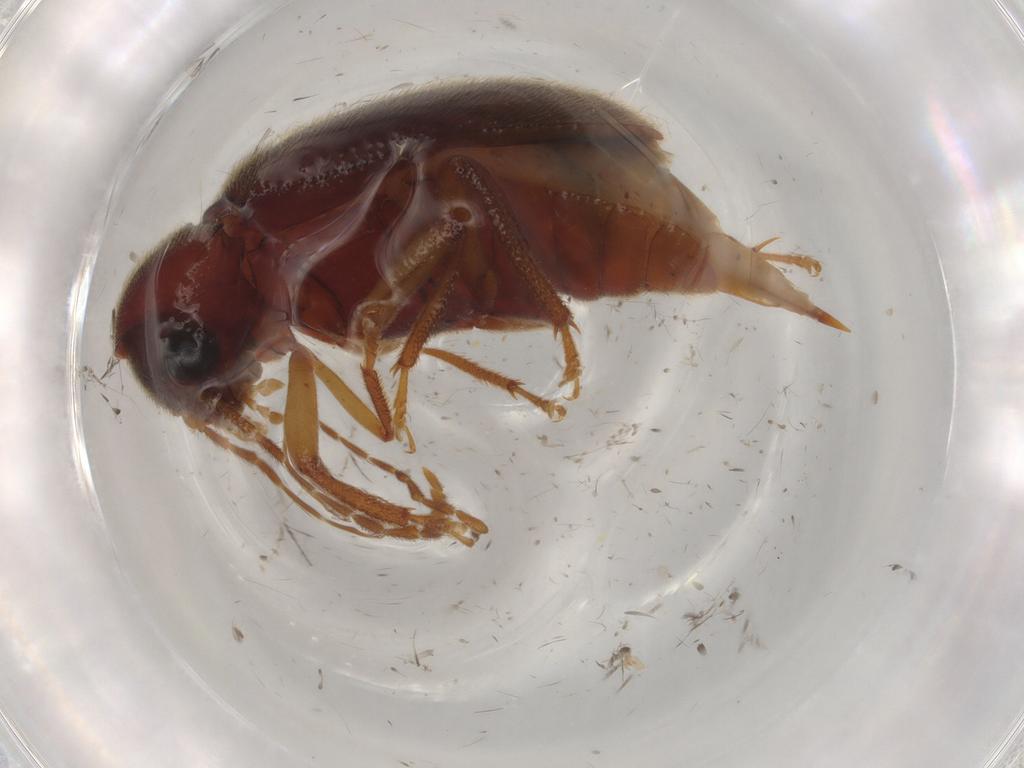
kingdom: Animalia
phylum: Arthropoda
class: Insecta
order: Coleoptera
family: Ptilodactylidae
